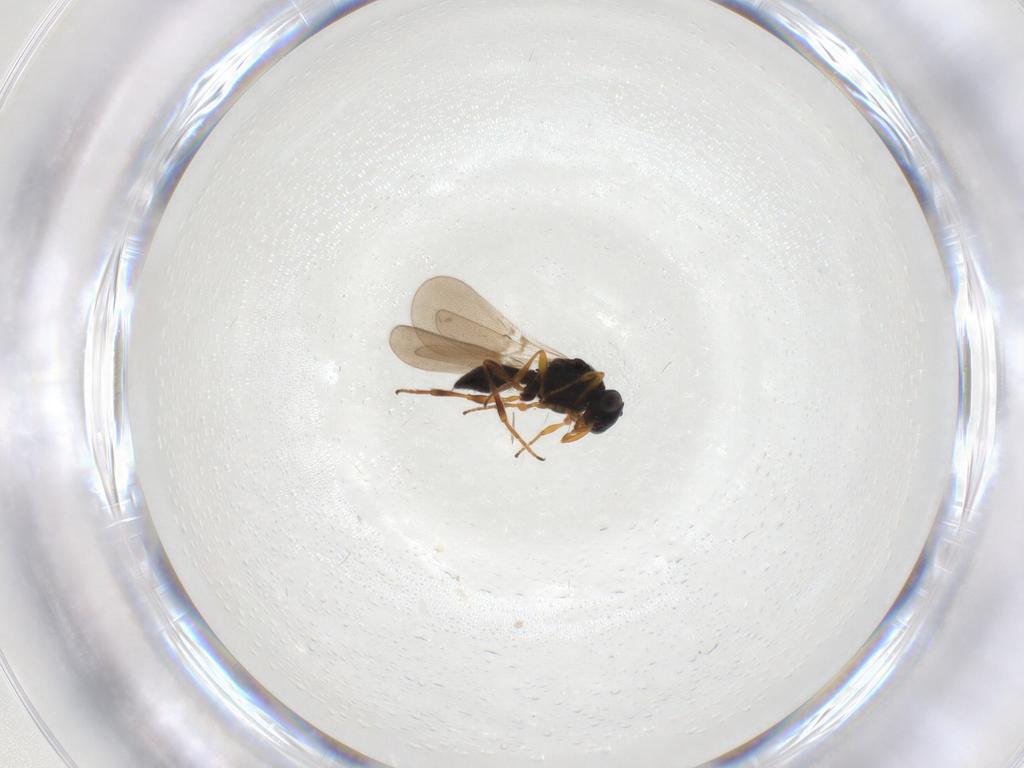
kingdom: Animalia
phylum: Arthropoda
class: Insecta
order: Hymenoptera
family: Platygastridae
